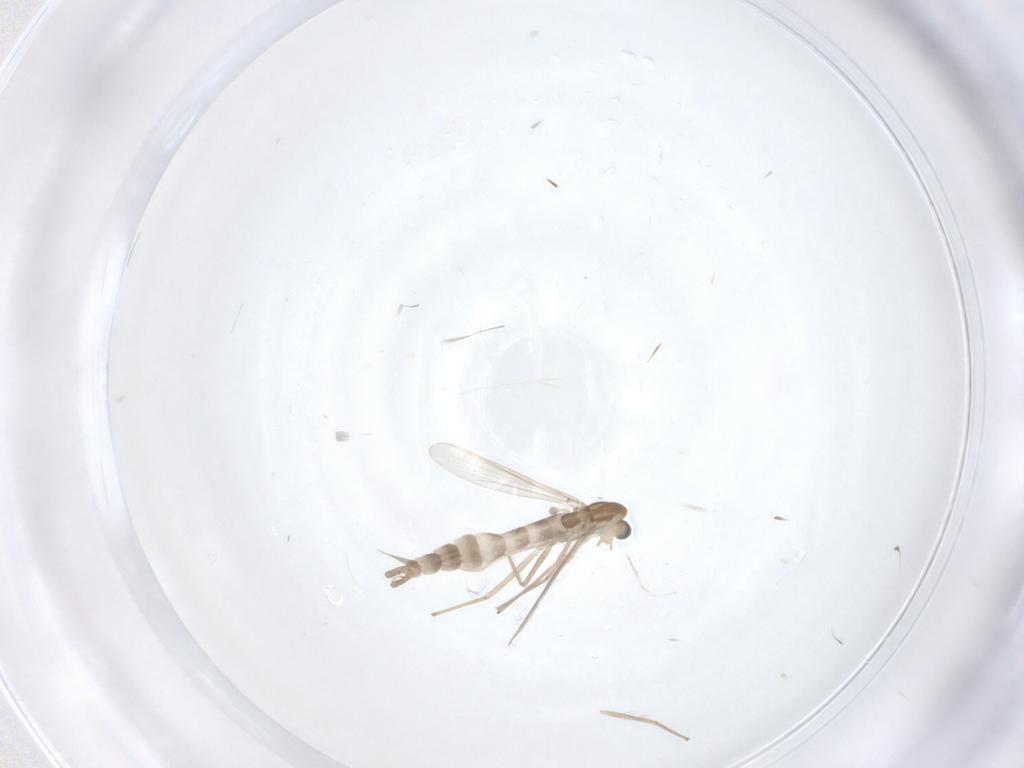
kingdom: Animalia
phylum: Arthropoda
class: Insecta
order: Diptera
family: Chironomidae
